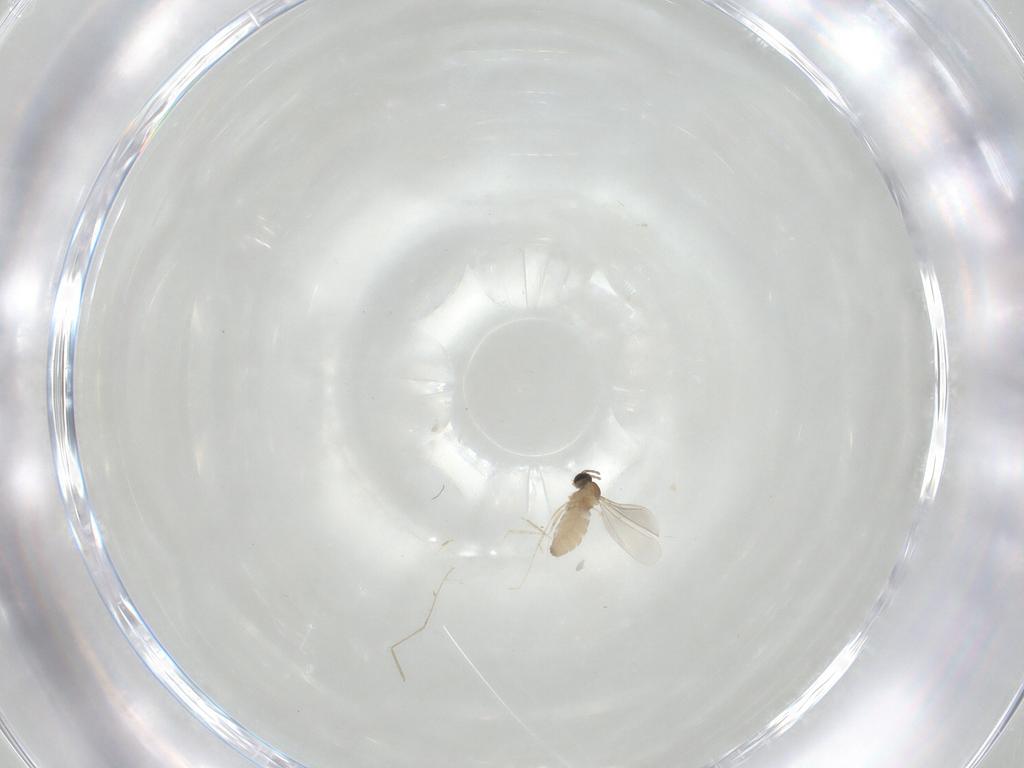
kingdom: Animalia
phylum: Arthropoda
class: Insecta
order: Diptera
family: Cecidomyiidae
